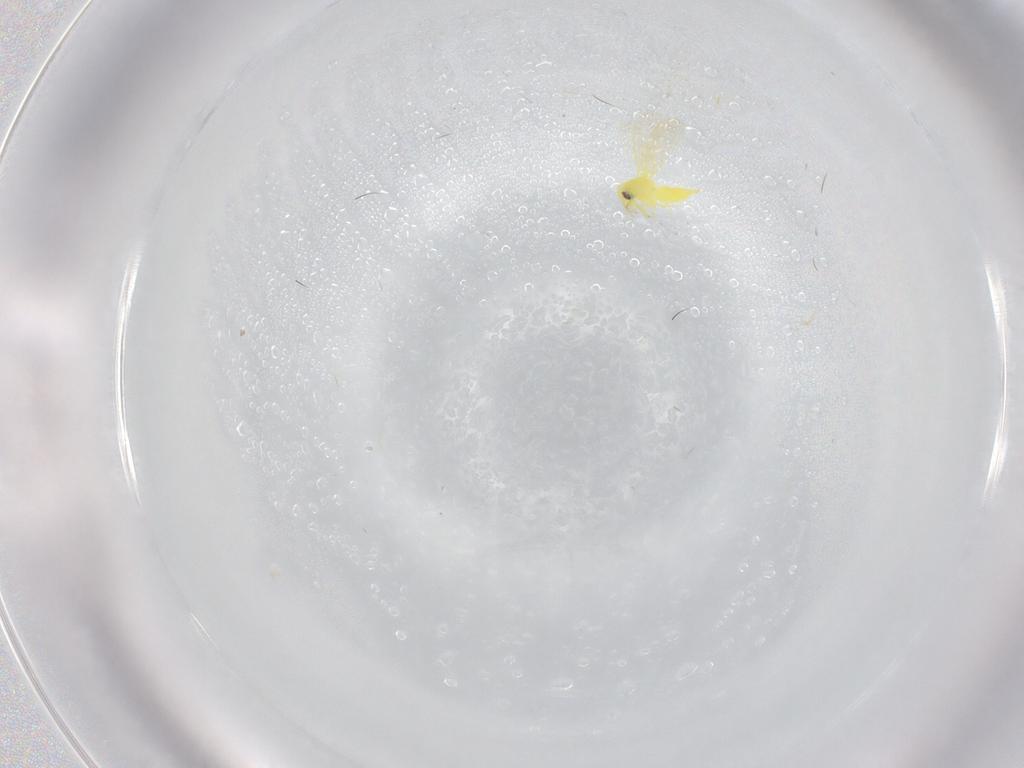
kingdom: Animalia
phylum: Arthropoda
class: Insecta
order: Hemiptera
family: Aleyrodidae
